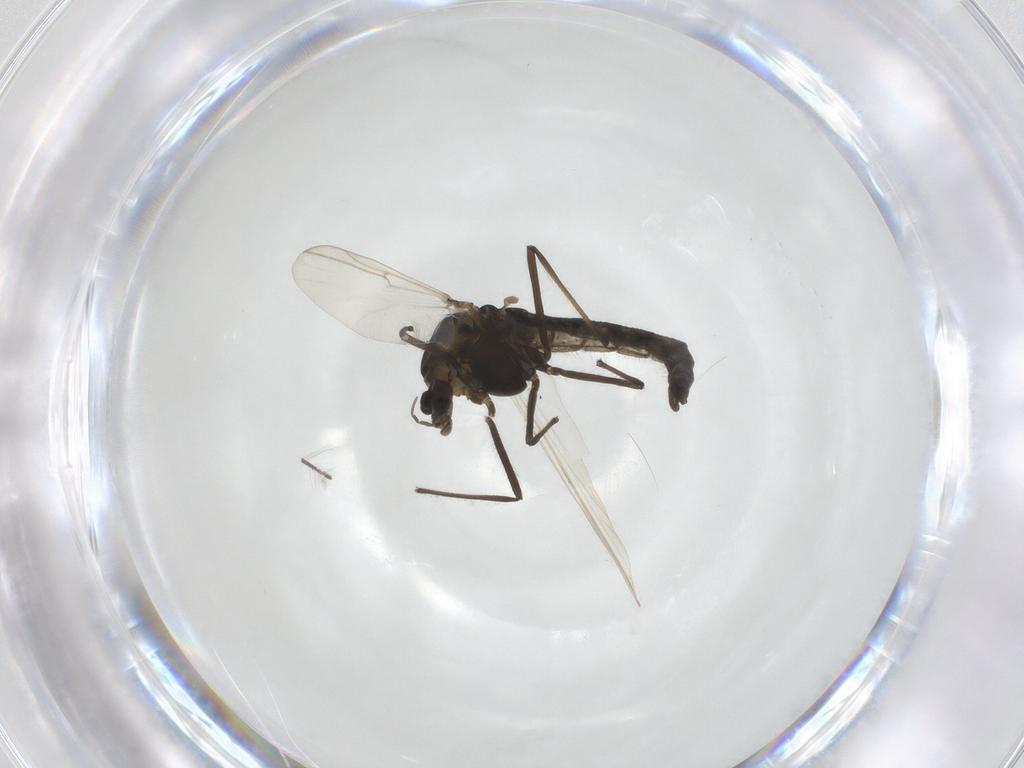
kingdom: Animalia
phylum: Arthropoda
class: Insecta
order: Diptera
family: Chironomidae
